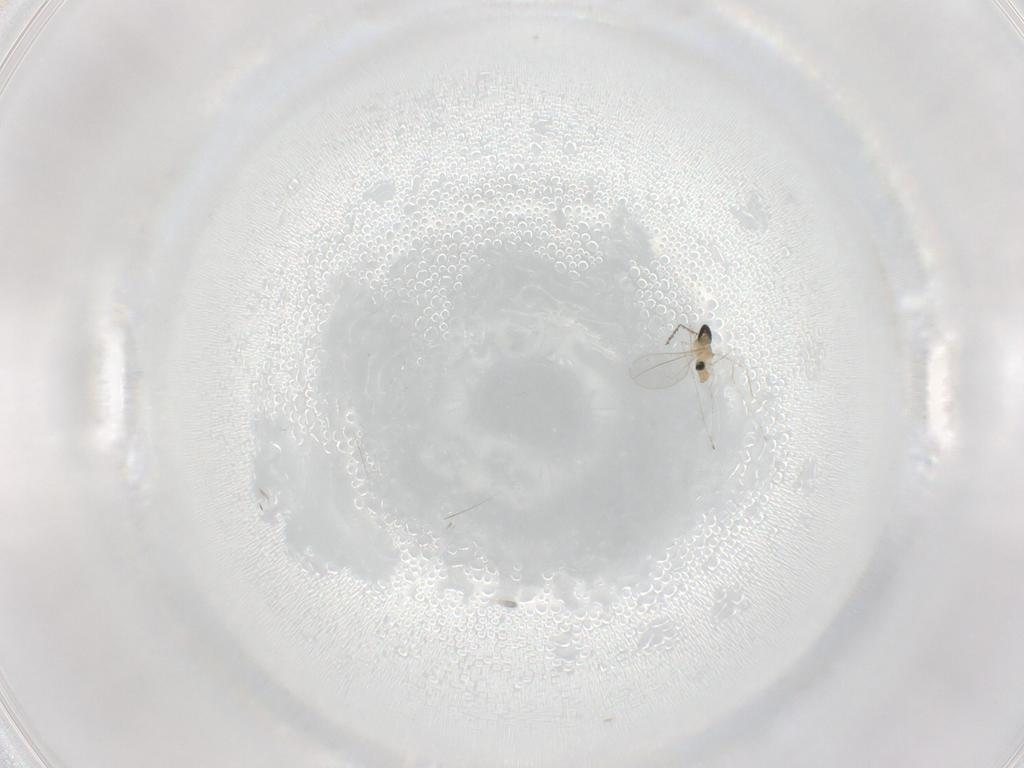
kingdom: Animalia
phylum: Arthropoda
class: Insecta
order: Diptera
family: Cecidomyiidae
